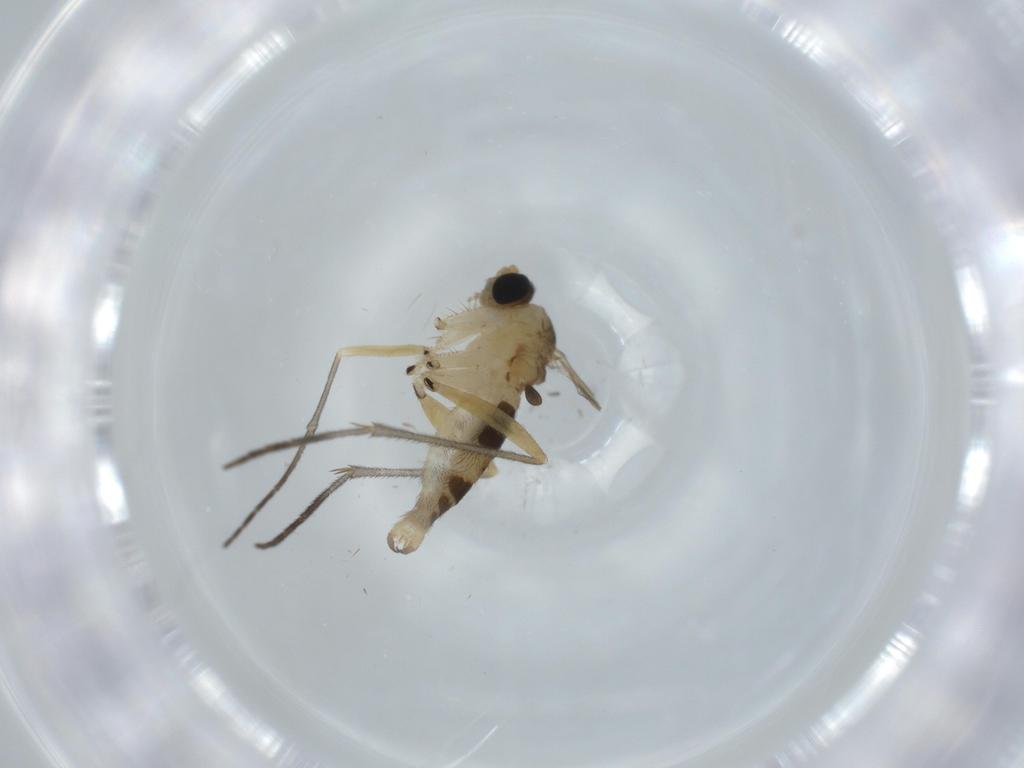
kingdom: Animalia
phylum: Arthropoda
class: Insecta
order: Diptera
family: Sciaridae
